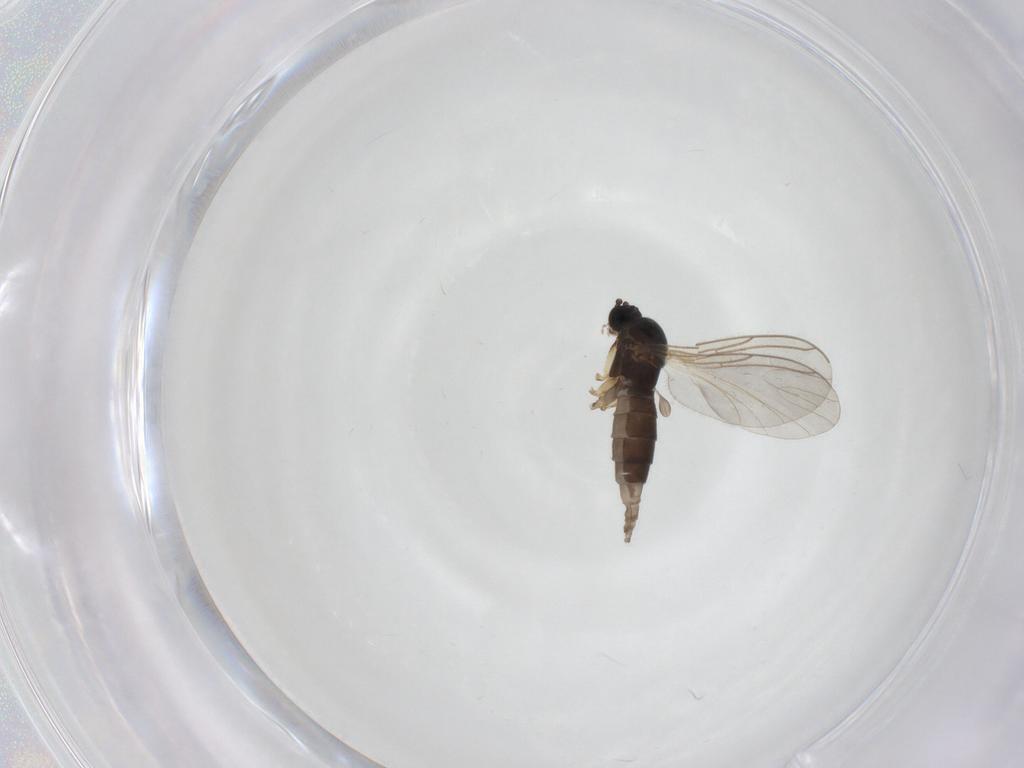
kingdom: Animalia
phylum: Arthropoda
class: Insecta
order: Diptera
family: Sciaridae
